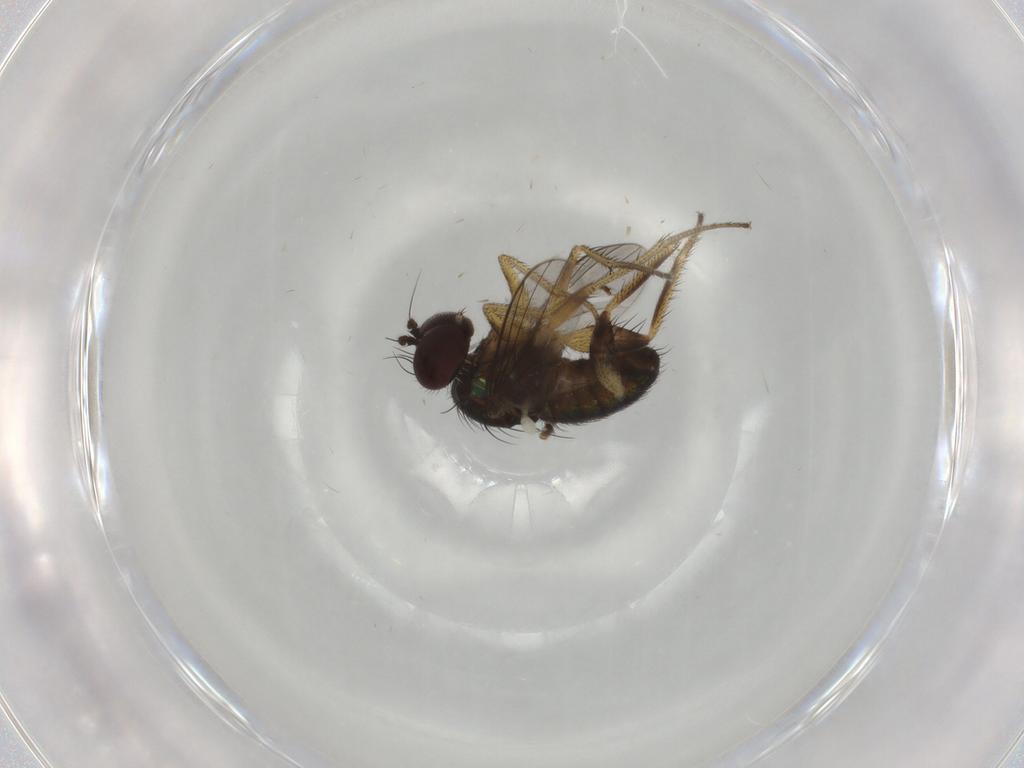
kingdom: Animalia
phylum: Arthropoda
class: Insecta
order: Diptera
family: Dolichopodidae
